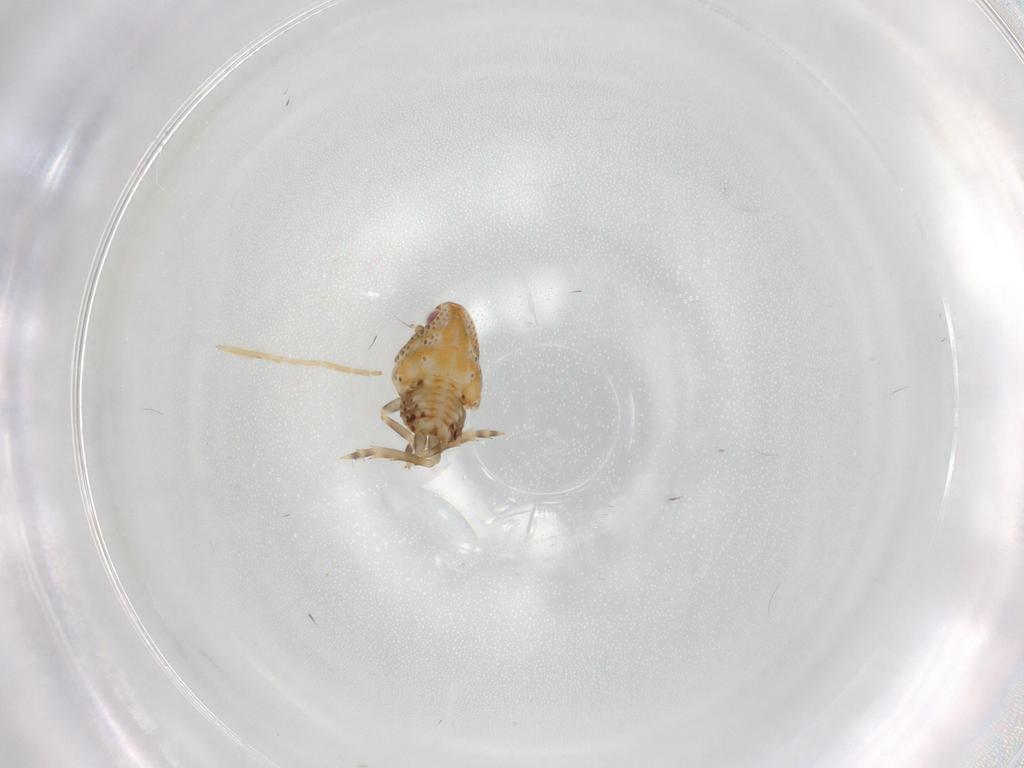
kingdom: Animalia
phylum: Arthropoda
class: Insecta
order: Hemiptera
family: Flatidae
